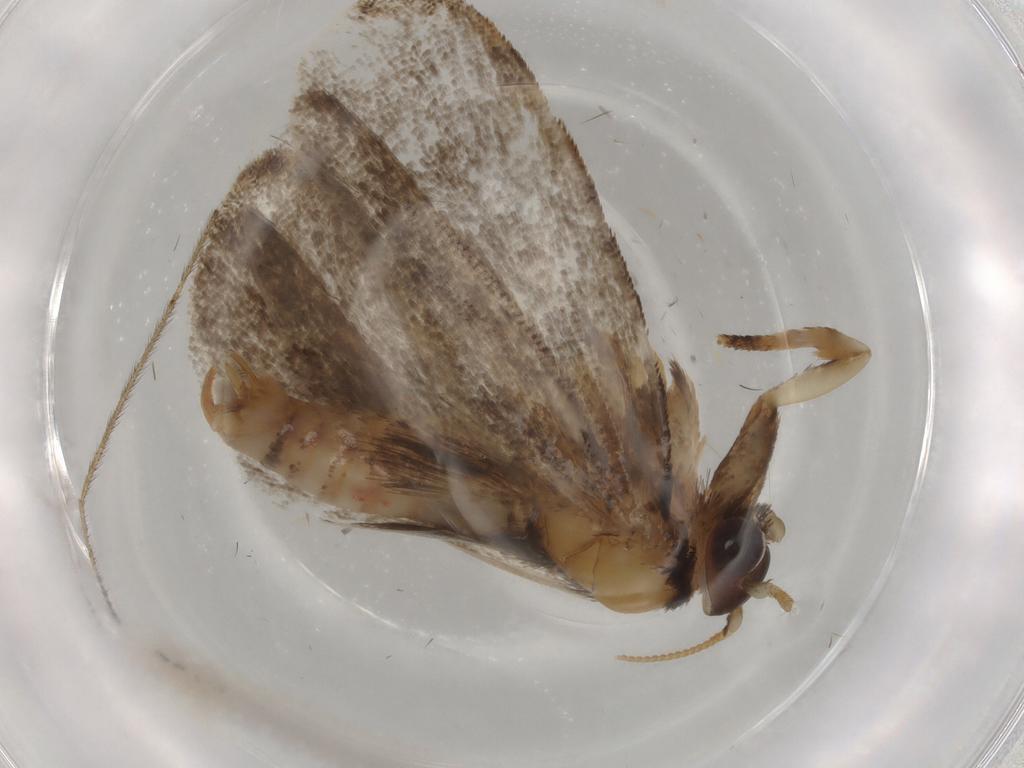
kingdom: Animalia
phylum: Arthropoda
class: Insecta
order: Lepidoptera
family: Tineidae
